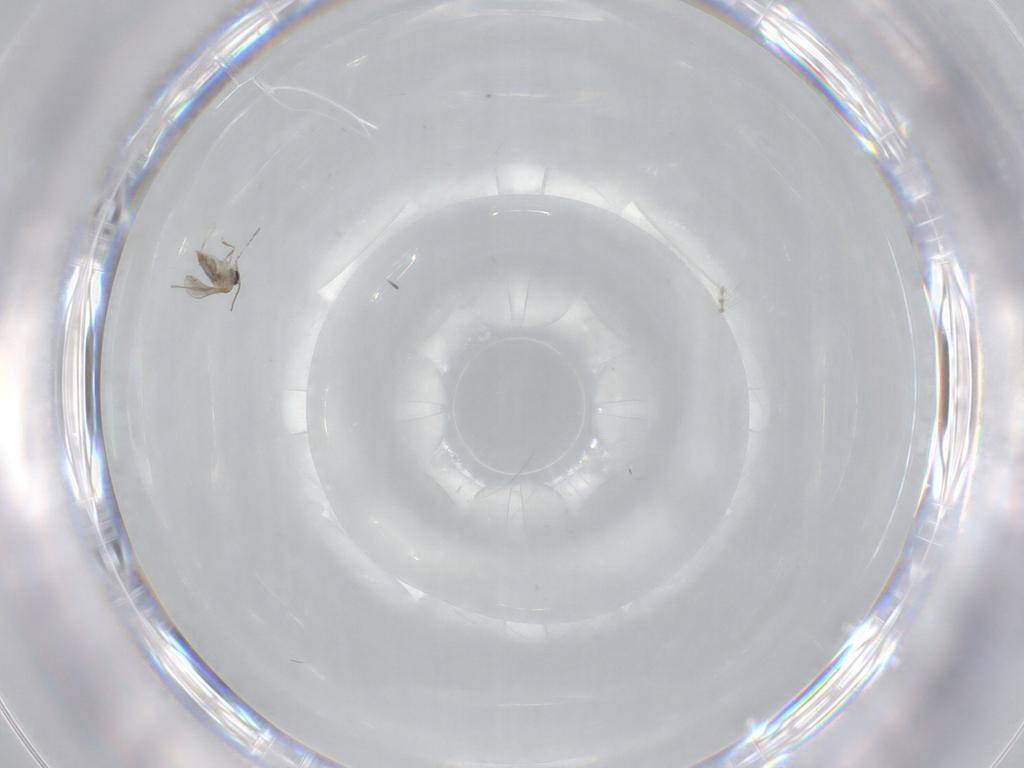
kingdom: Animalia
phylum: Arthropoda
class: Insecta
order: Diptera
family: Cecidomyiidae
